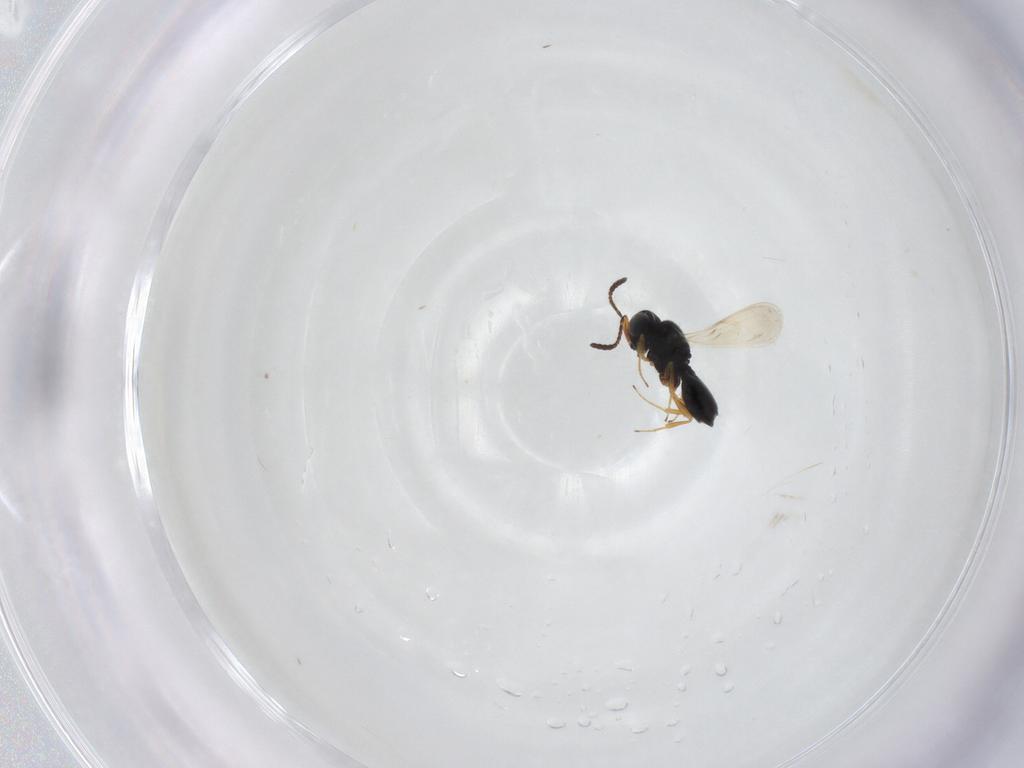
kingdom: Animalia
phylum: Arthropoda
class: Insecta
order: Hymenoptera
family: Scelionidae
